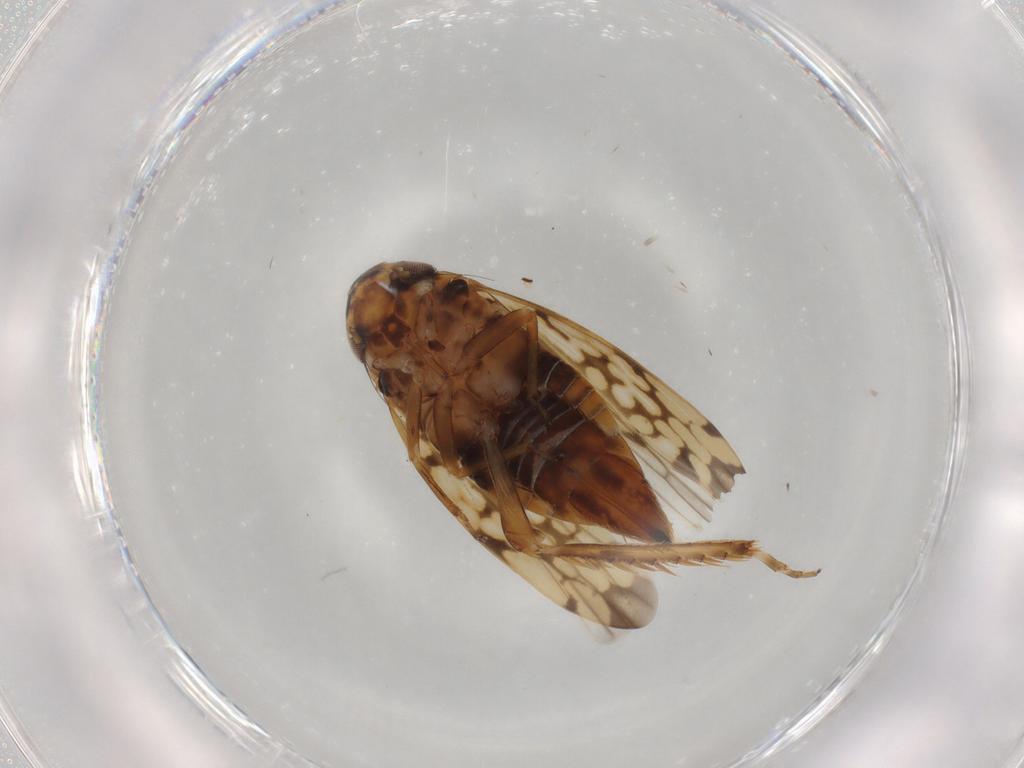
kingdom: Animalia
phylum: Arthropoda
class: Insecta
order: Hemiptera
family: Cicadellidae
